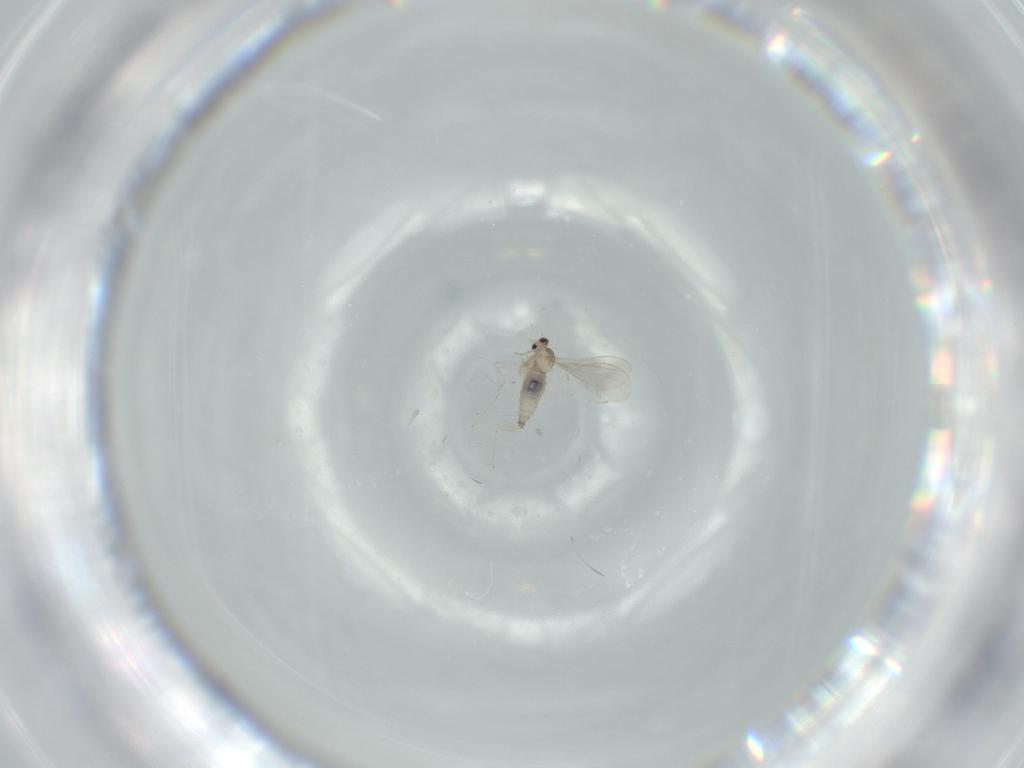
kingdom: Animalia
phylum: Arthropoda
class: Insecta
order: Diptera
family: Cecidomyiidae
